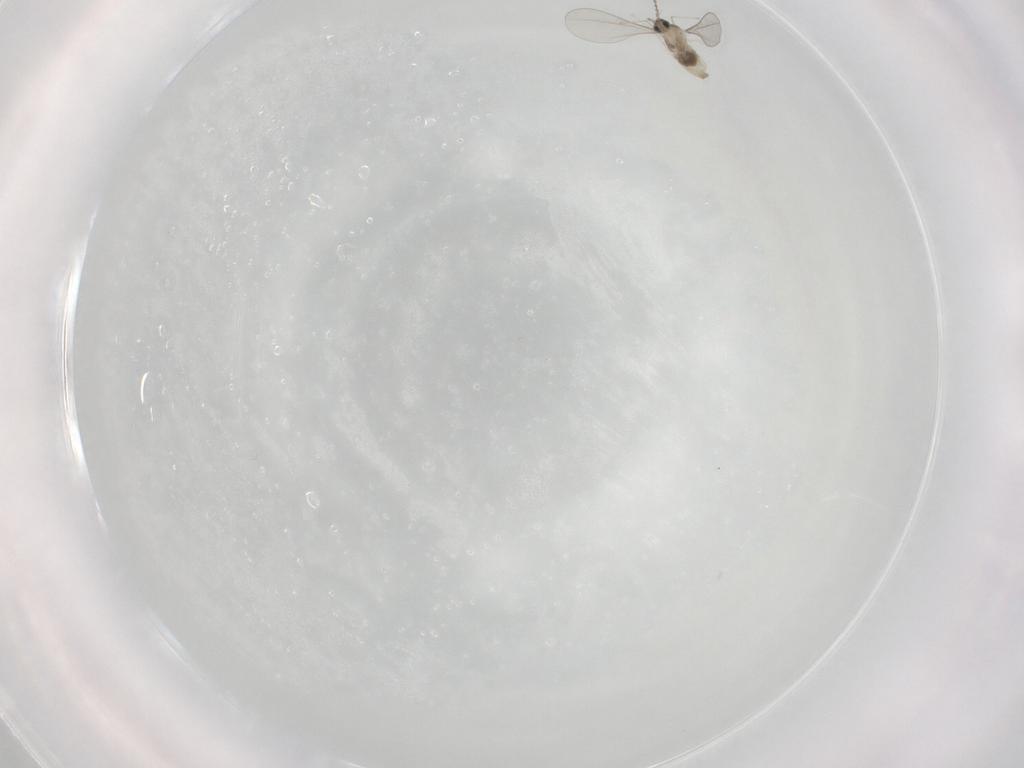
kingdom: Animalia
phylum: Arthropoda
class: Insecta
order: Diptera
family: Cecidomyiidae
